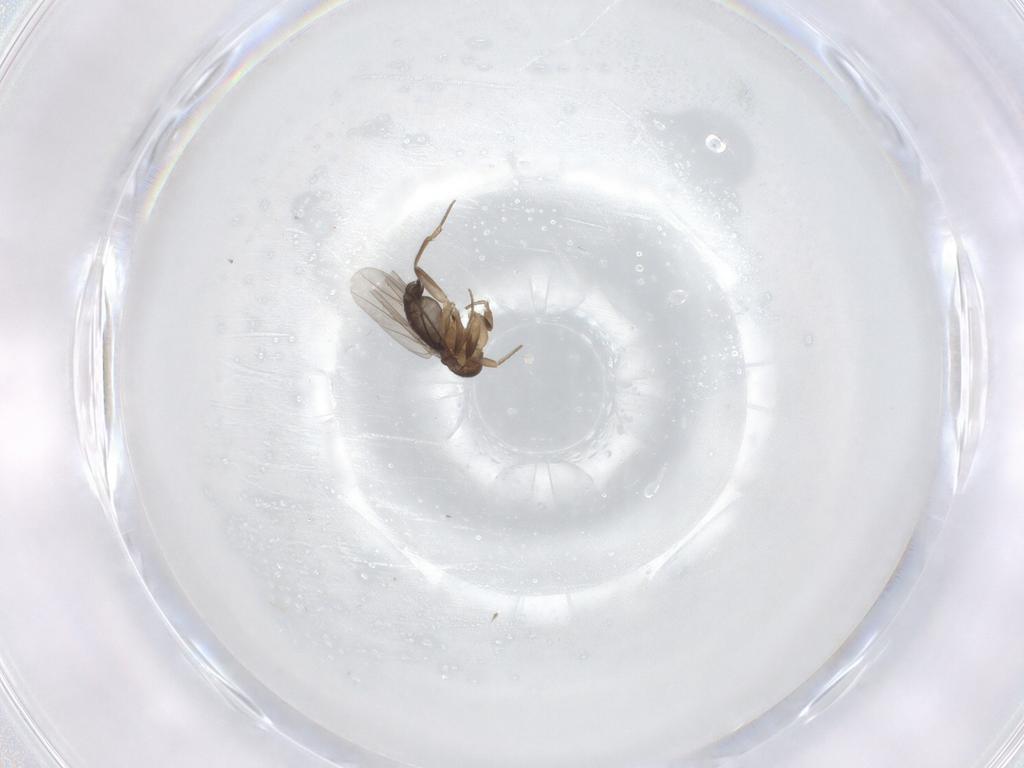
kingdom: Animalia
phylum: Arthropoda
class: Insecta
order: Diptera
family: Phoridae
